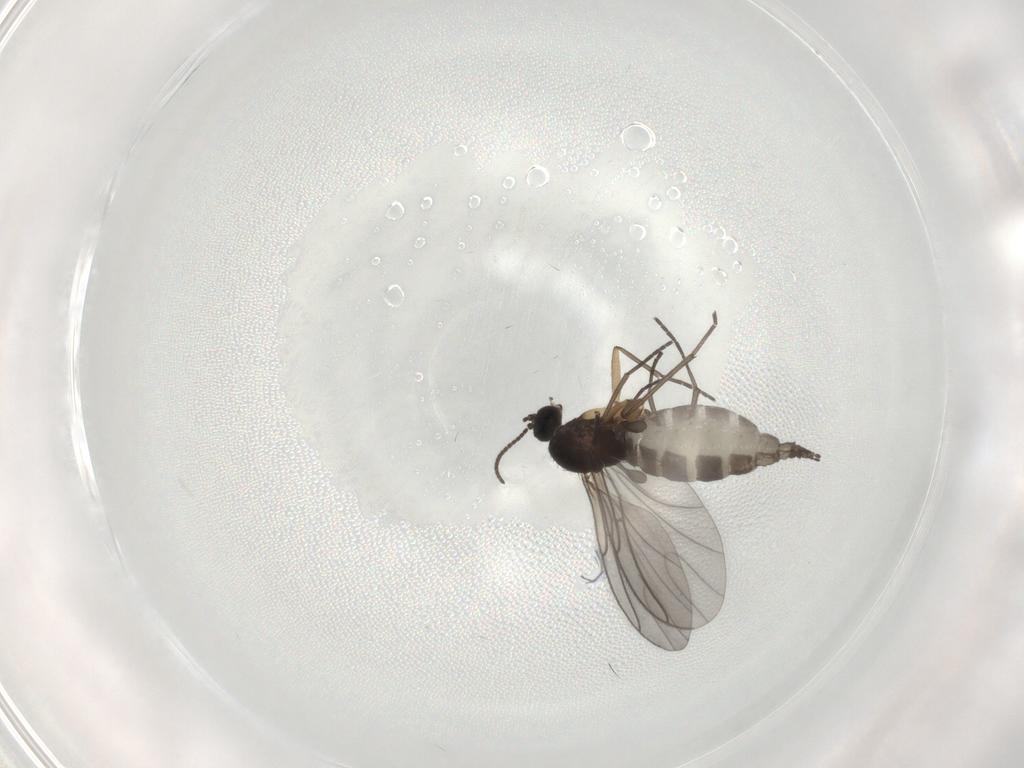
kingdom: Animalia
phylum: Arthropoda
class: Insecta
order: Diptera
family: Sciaridae
